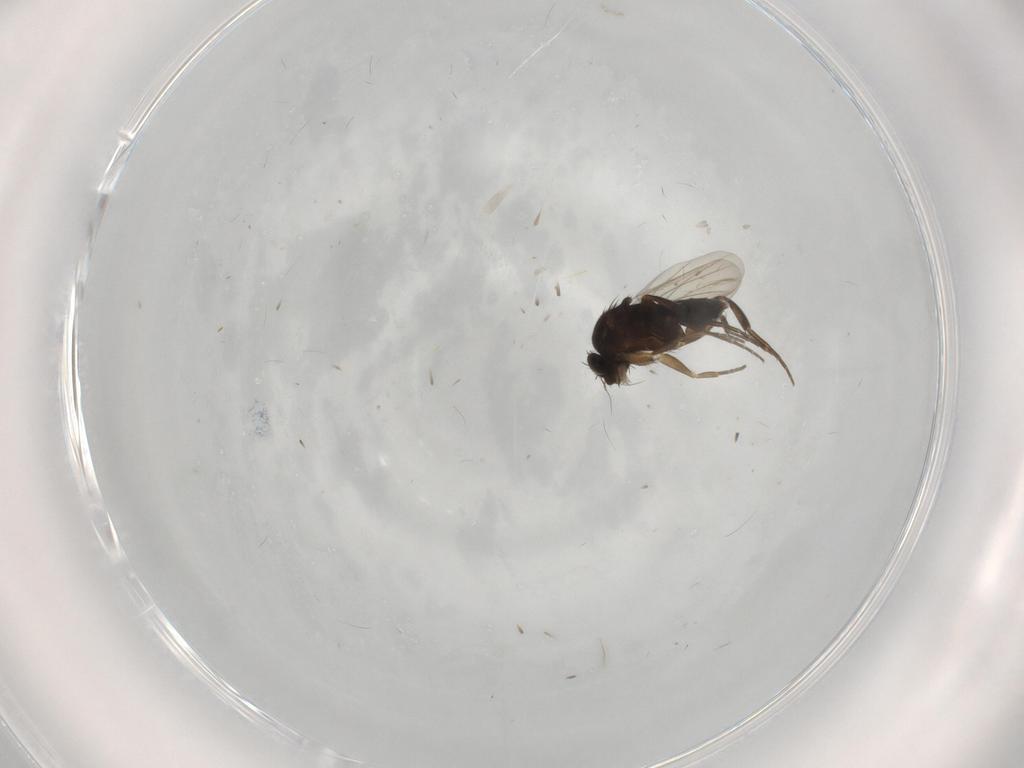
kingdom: Animalia
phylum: Arthropoda
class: Insecta
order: Diptera
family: Phoridae
